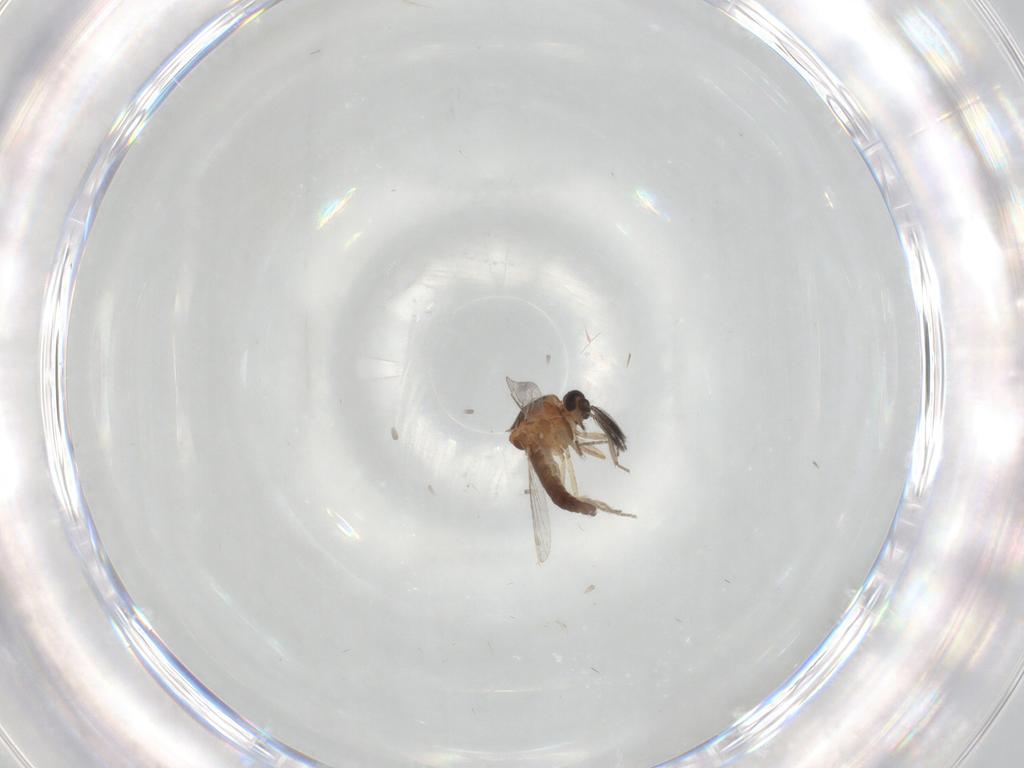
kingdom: Animalia
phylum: Arthropoda
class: Insecta
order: Diptera
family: Ceratopogonidae
